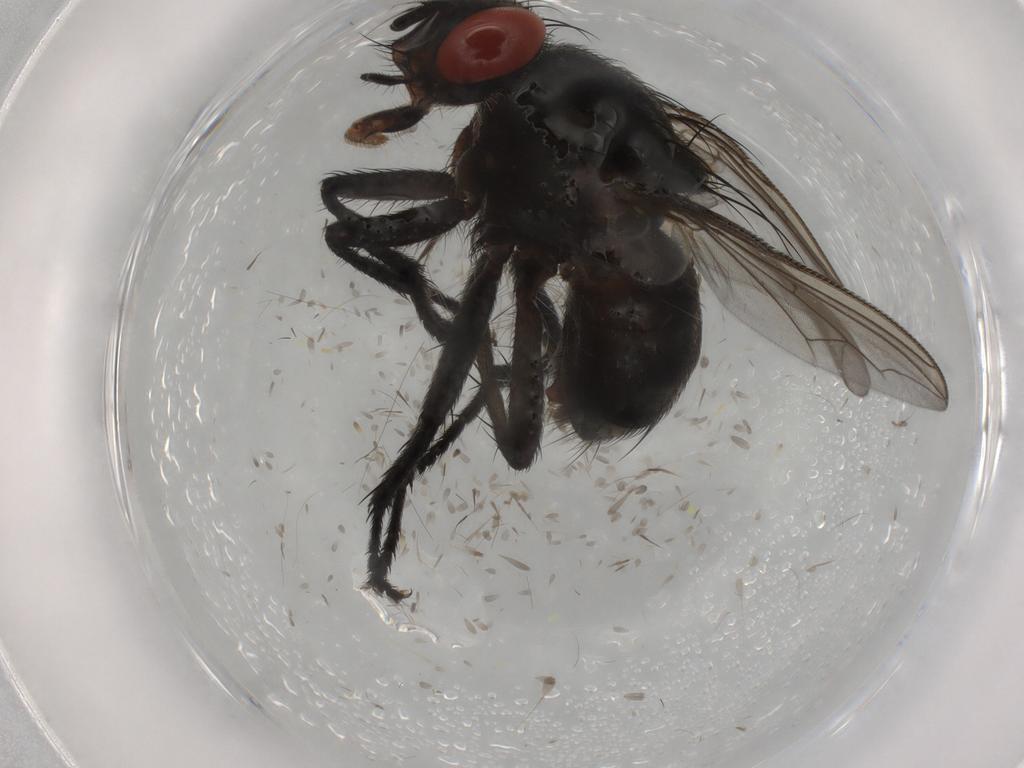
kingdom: Animalia
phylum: Arthropoda
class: Insecta
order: Diptera
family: Sarcophagidae
